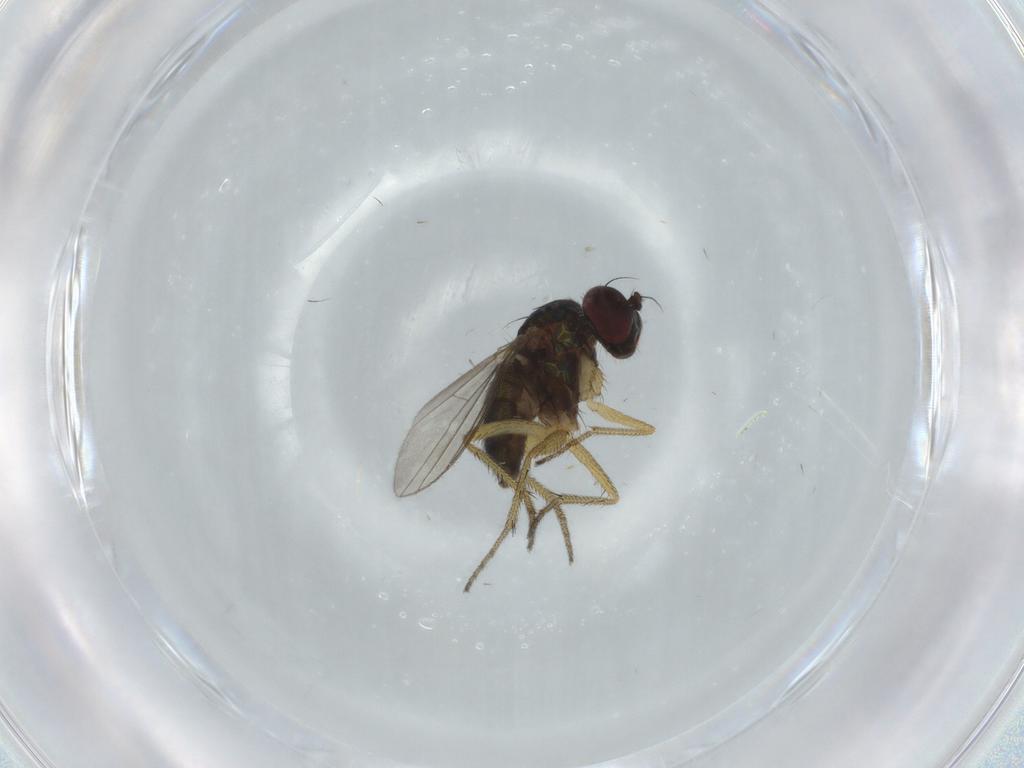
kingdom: Animalia
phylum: Arthropoda
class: Insecta
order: Diptera
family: Dolichopodidae
